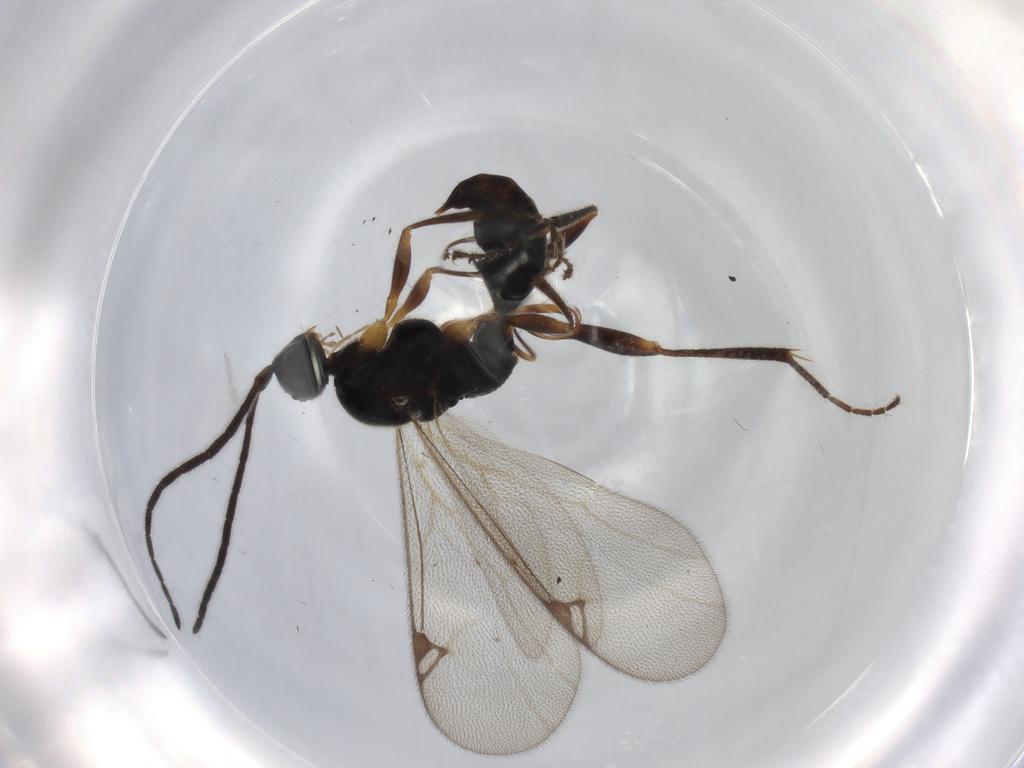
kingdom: Animalia
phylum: Arthropoda
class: Insecta
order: Hymenoptera
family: Proctotrupidae
